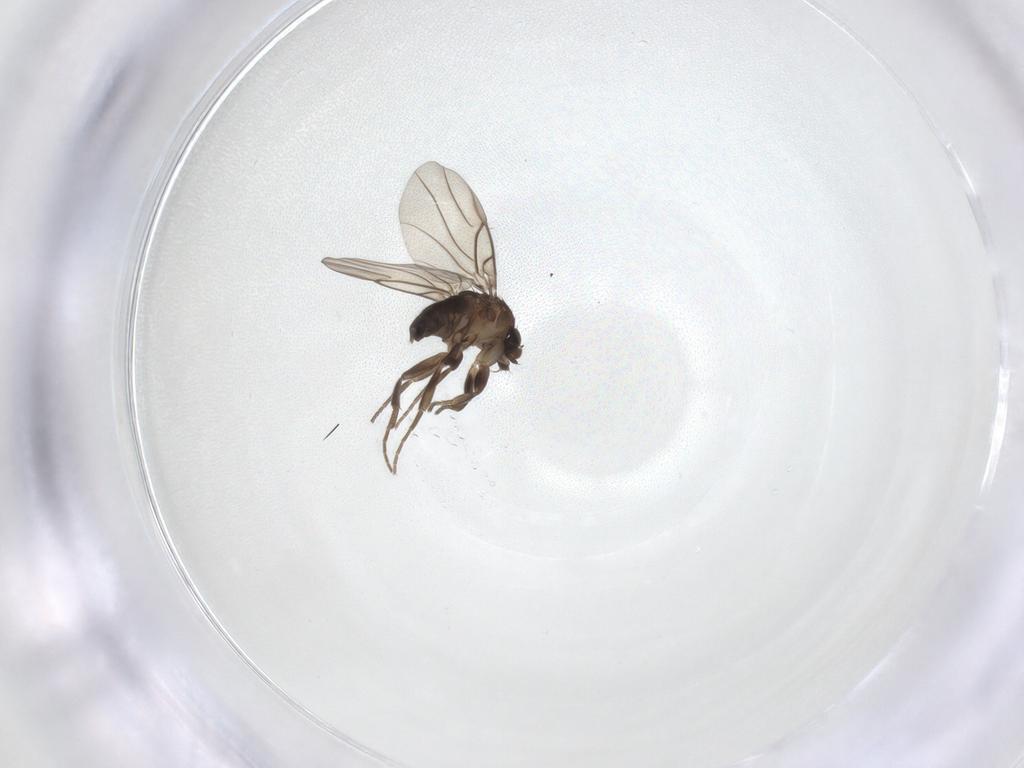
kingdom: Animalia
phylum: Arthropoda
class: Insecta
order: Diptera
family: Phoridae
